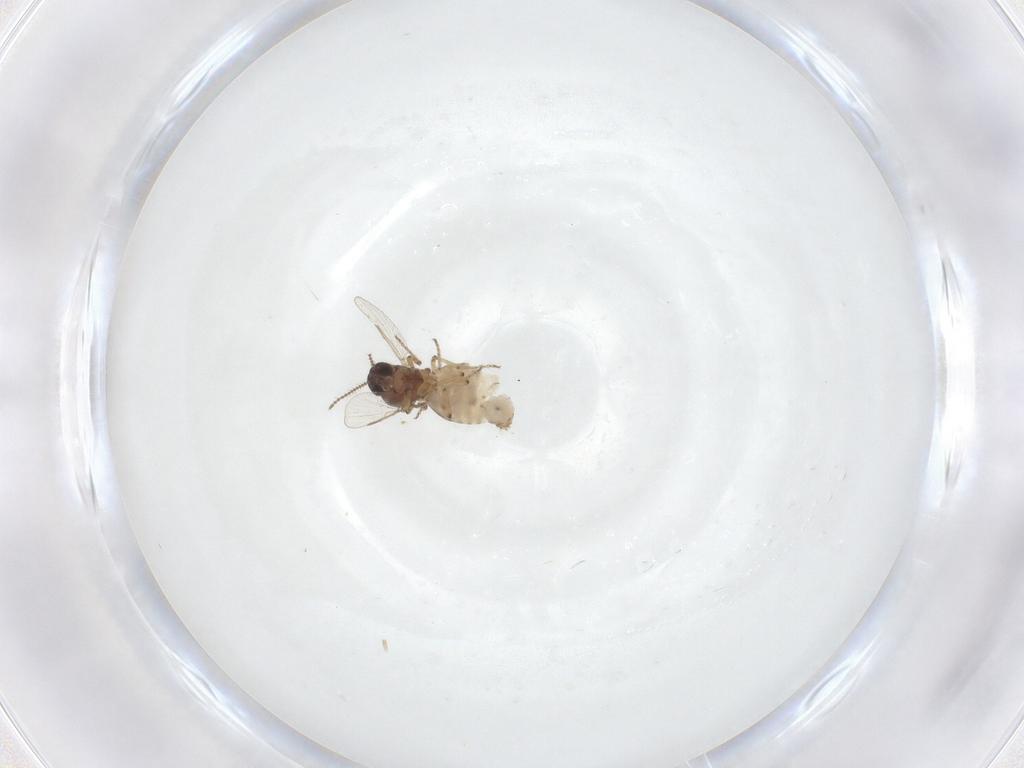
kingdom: Animalia
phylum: Arthropoda
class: Insecta
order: Diptera
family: Ceratopogonidae
